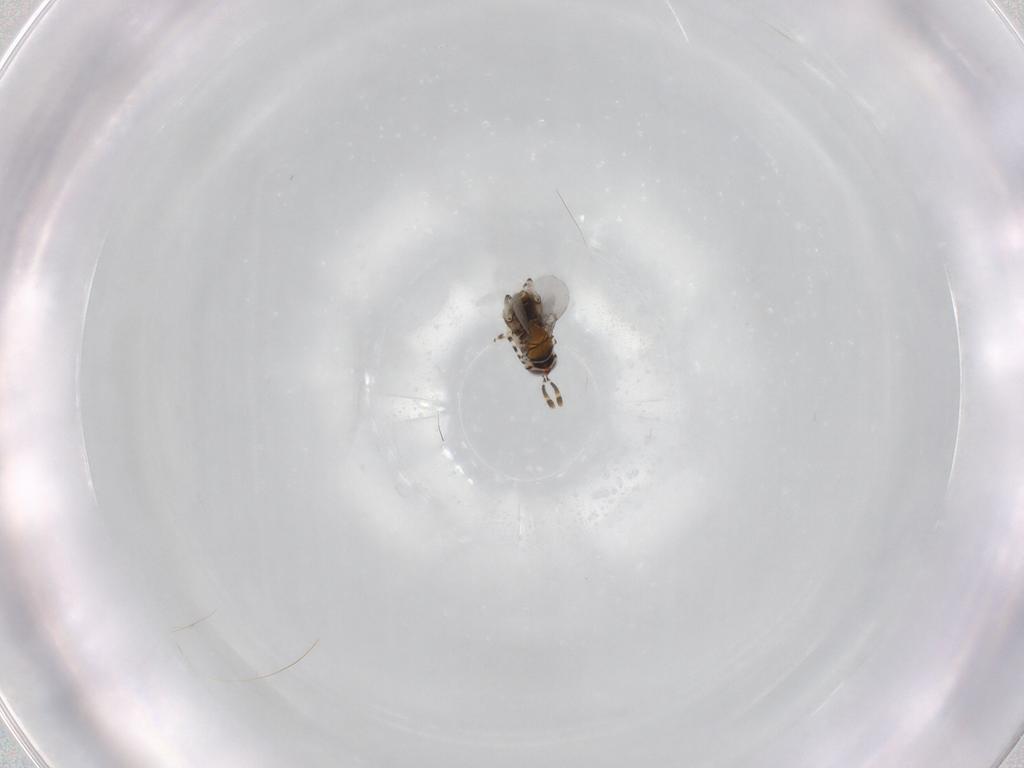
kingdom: Animalia
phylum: Arthropoda
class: Insecta
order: Hymenoptera
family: Encyrtidae
